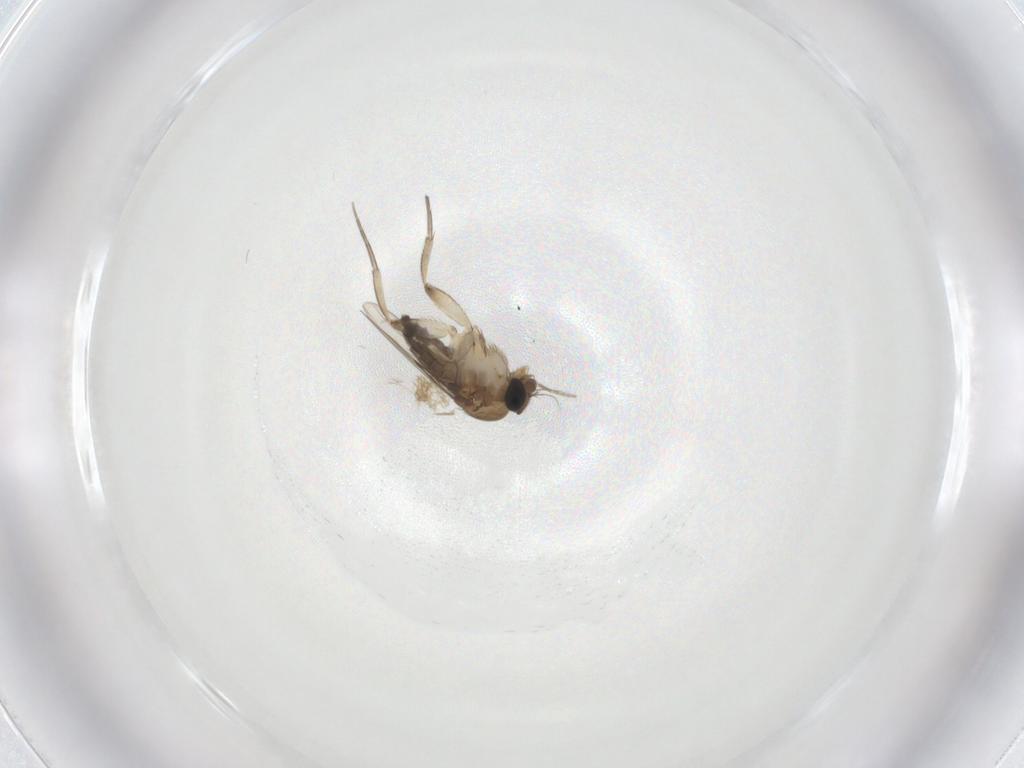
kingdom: Animalia
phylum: Arthropoda
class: Insecta
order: Diptera
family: Phoridae
